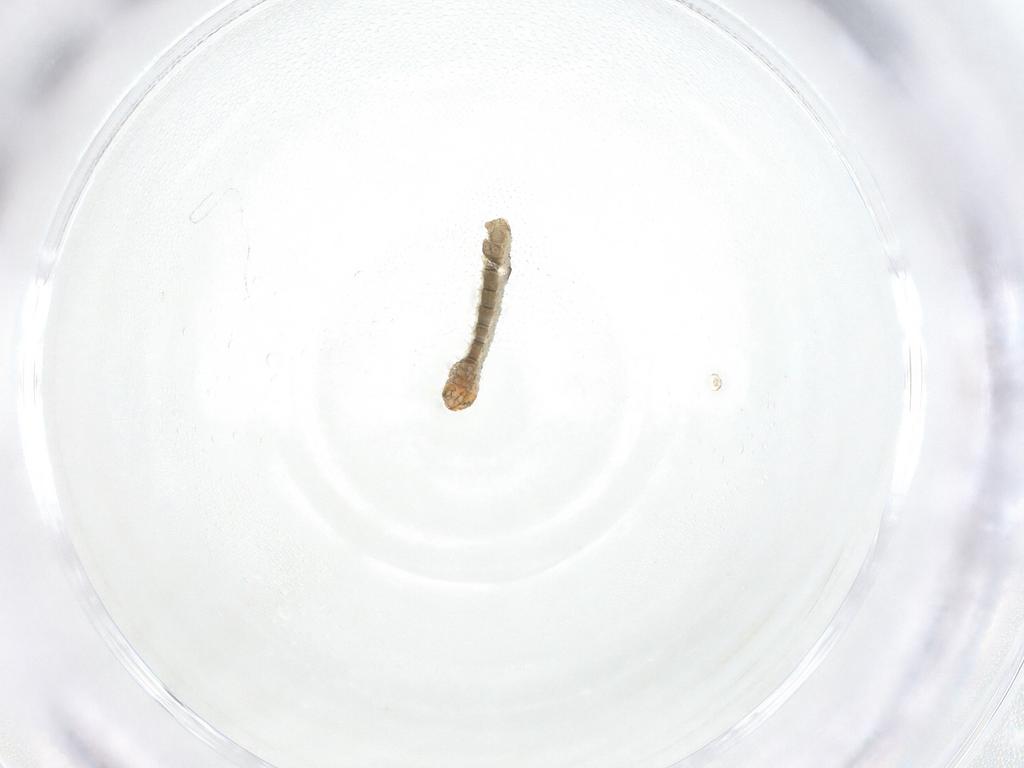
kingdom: Animalia
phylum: Arthropoda
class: Insecta
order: Lepidoptera
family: Geometridae
